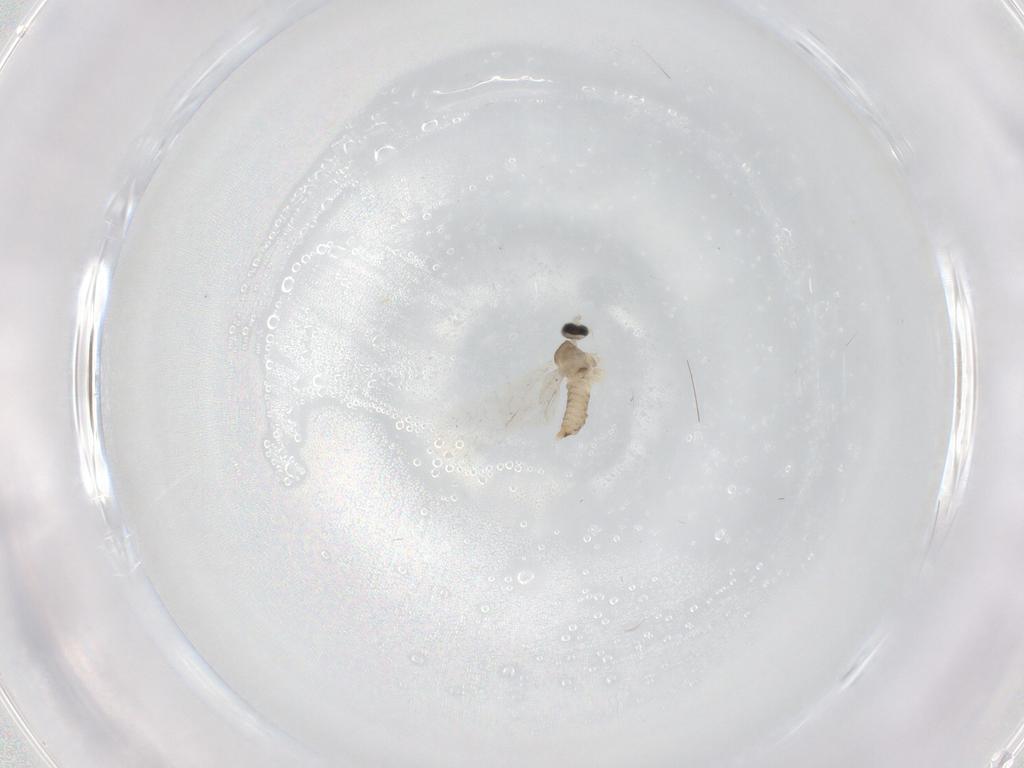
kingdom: Animalia
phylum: Arthropoda
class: Insecta
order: Diptera
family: Cecidomyiidae
